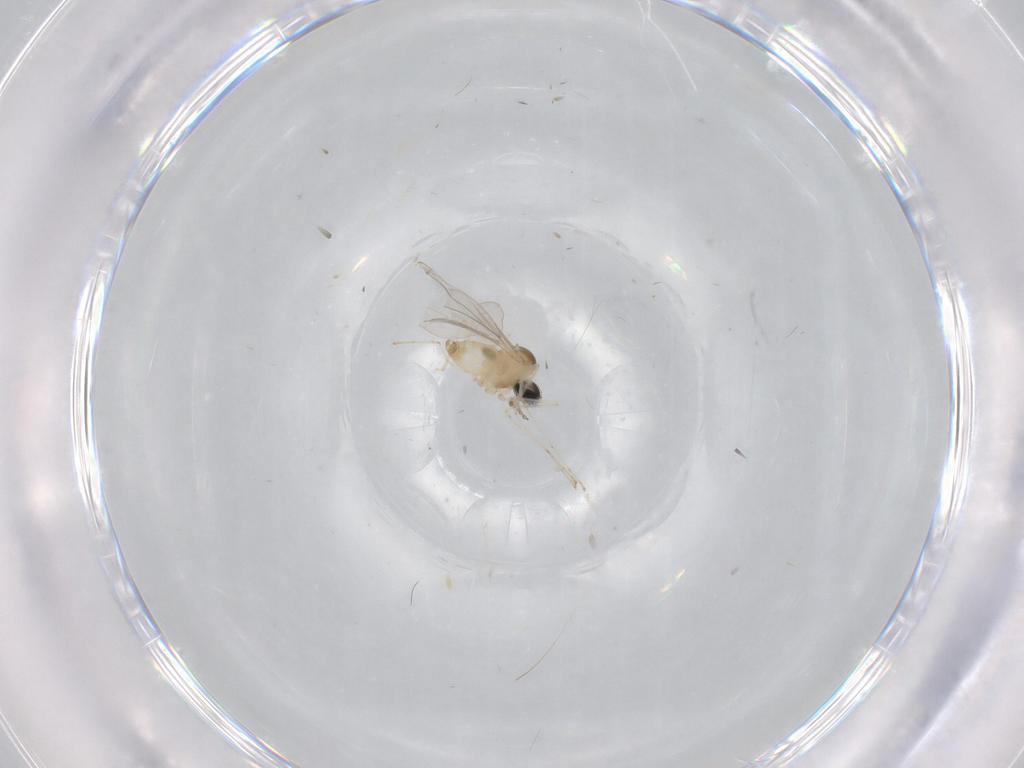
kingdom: Animalia
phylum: Arthropoda
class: Insecta
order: Diptera
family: Cecidomyiidae
